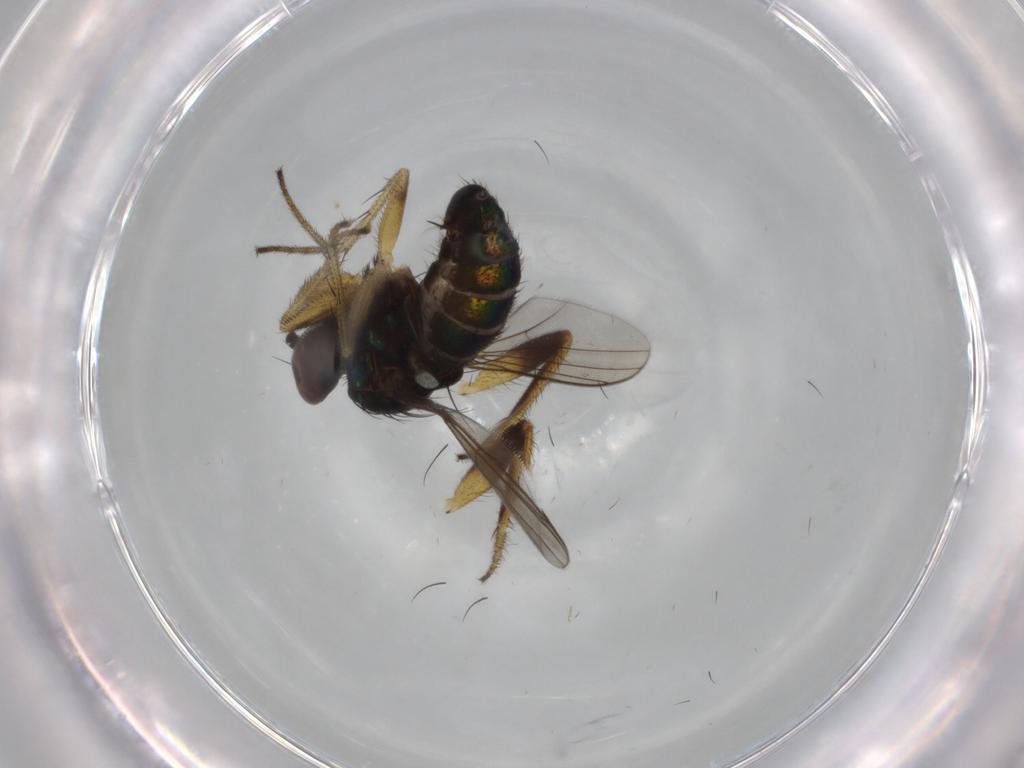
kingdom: Animalia
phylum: Arthropoda
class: Insecta
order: Diptera
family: Dolichopodidae
